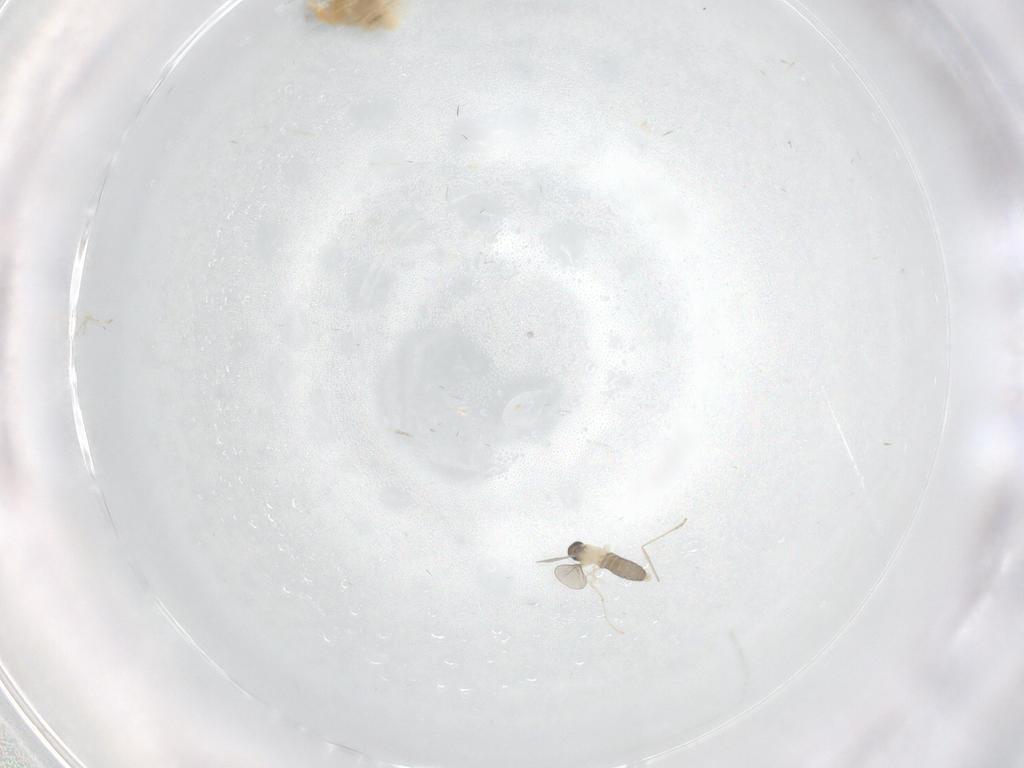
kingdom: Animalia
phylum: Arthropoda
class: Insecta
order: Diptera
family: Cecidomyiidae
